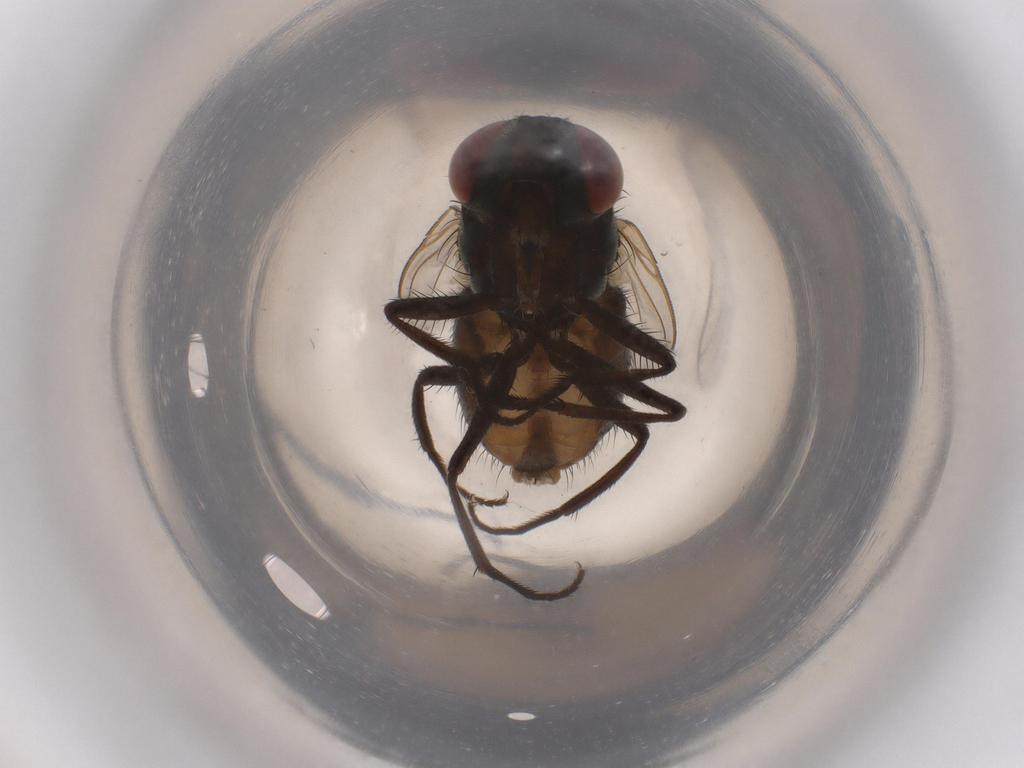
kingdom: Animalia
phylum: Arthropoda
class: Insecta
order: Diptera
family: Muscidae
